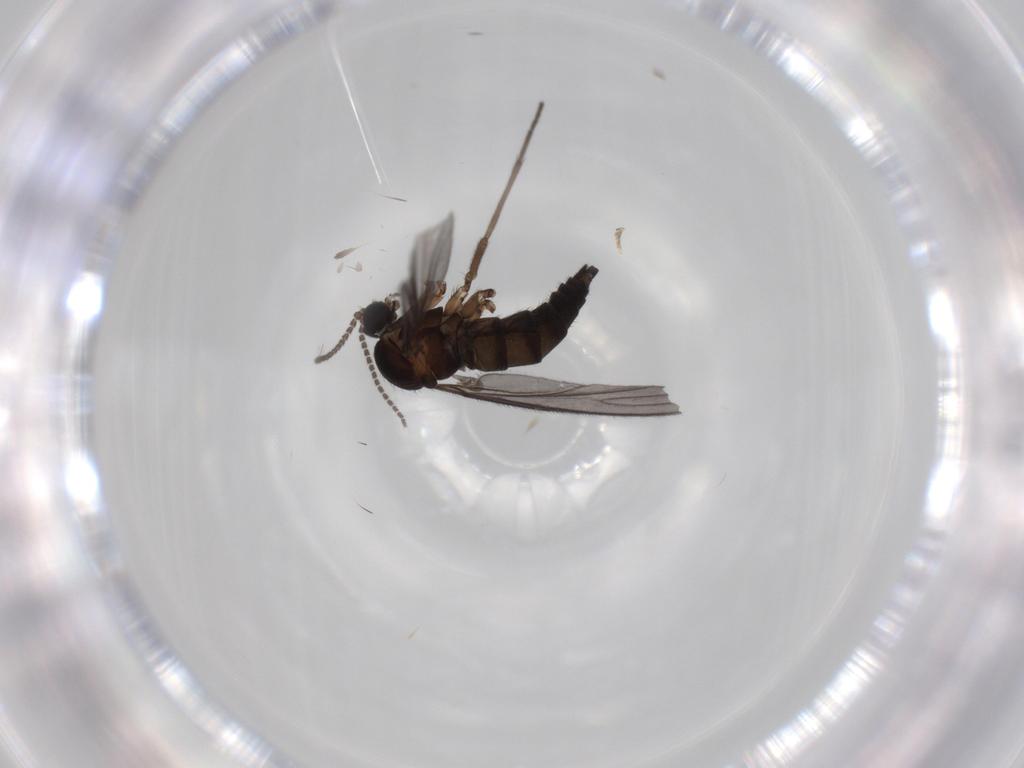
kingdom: Animalia
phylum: Arthropoda
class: Insecta
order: Diptera
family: Sciaridae
